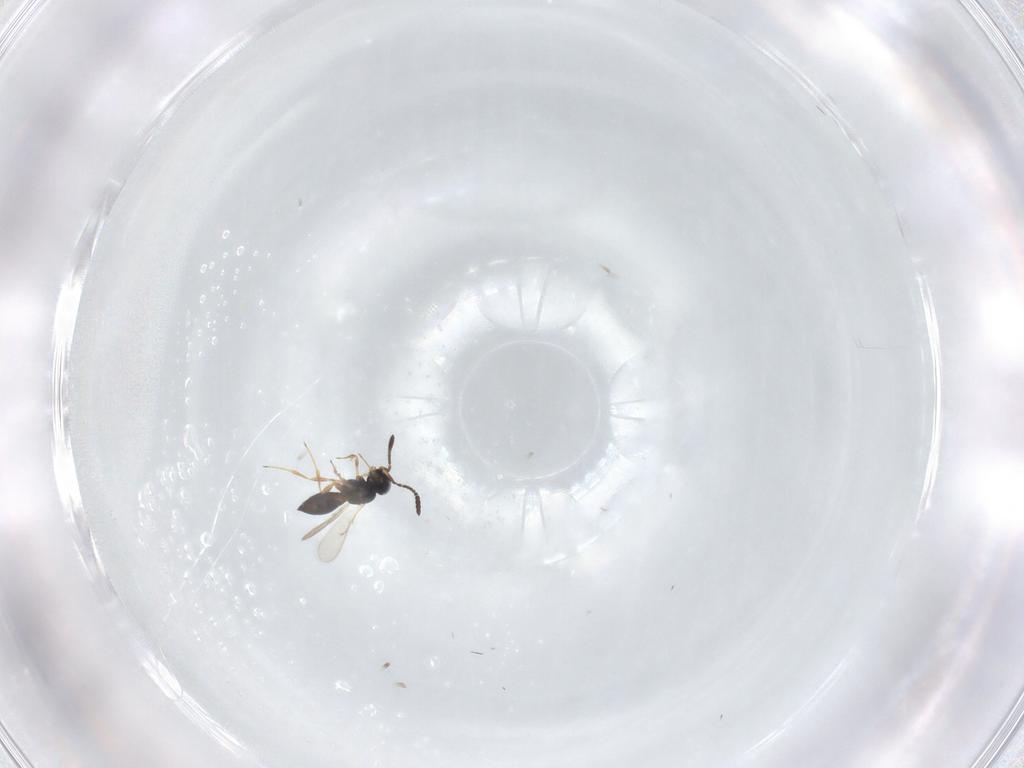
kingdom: Animalia
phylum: Arthropoda
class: Insecta
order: Hymenoptera
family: Scelionidae
